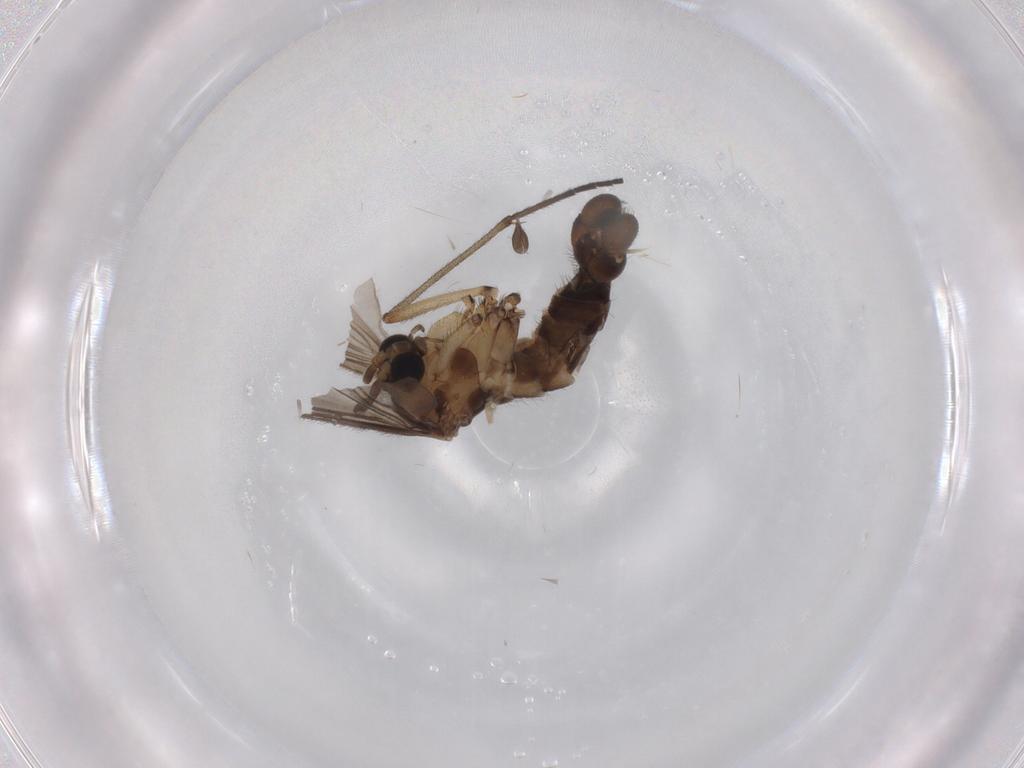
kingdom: Animalia
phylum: Arthropoda
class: Insecta
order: Diptera
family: Sciaridae
